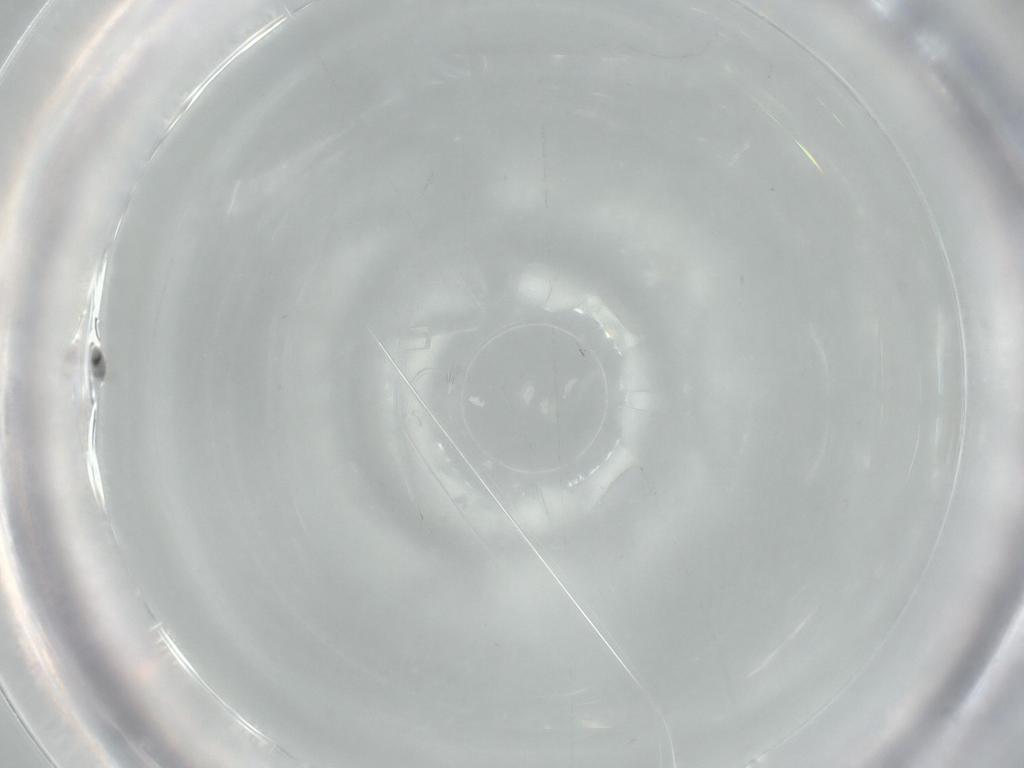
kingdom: Animalia
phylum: Arthropoda
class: Insecta
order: Diptera
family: Cecidomyiidae
